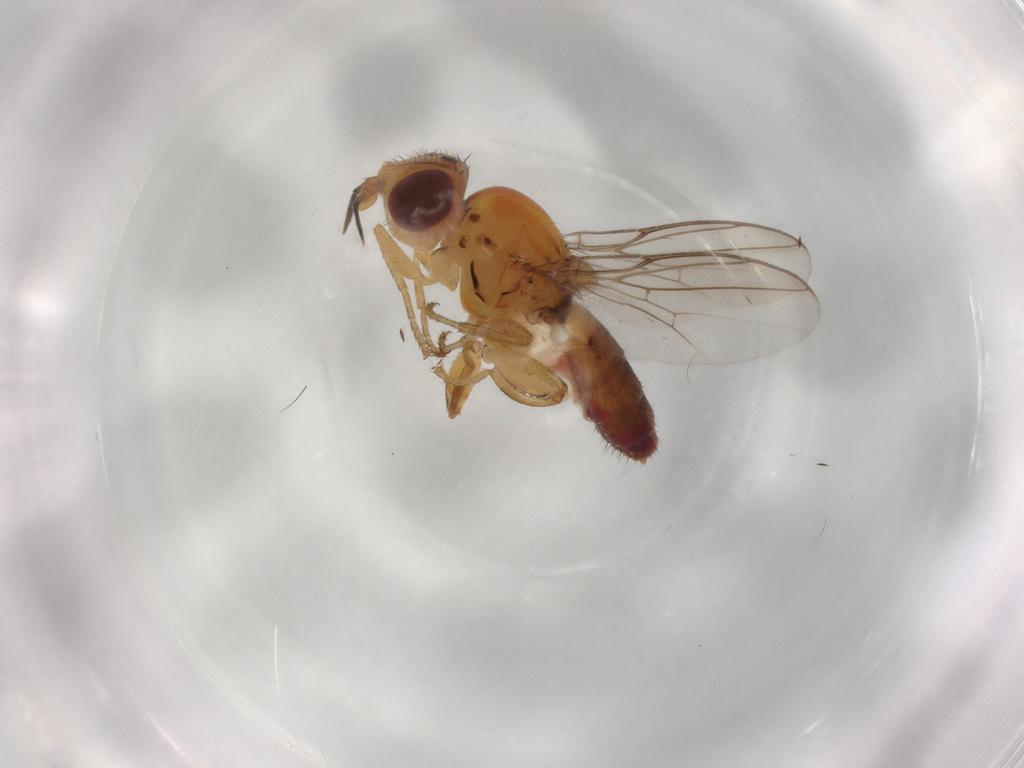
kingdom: Animalia
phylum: Arthropoda
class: Insecta
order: Diptera
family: Chloropidae
